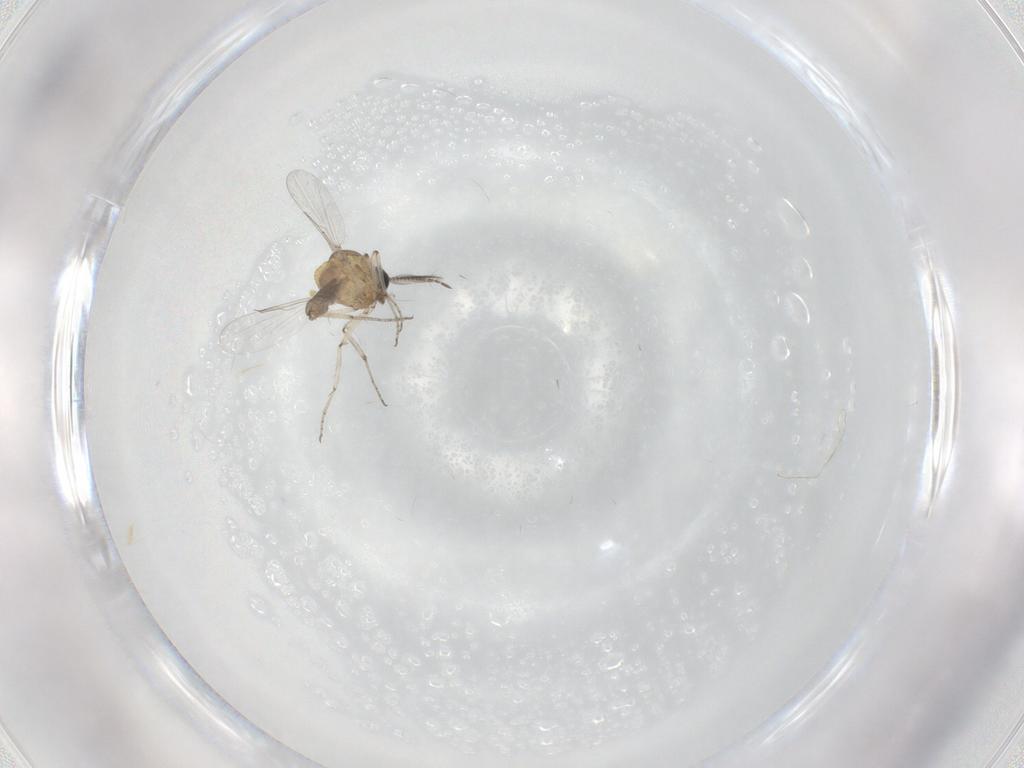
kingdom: Animalia
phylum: Arthropoda
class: Insecta
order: Diptera
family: Ceratopogonidae
